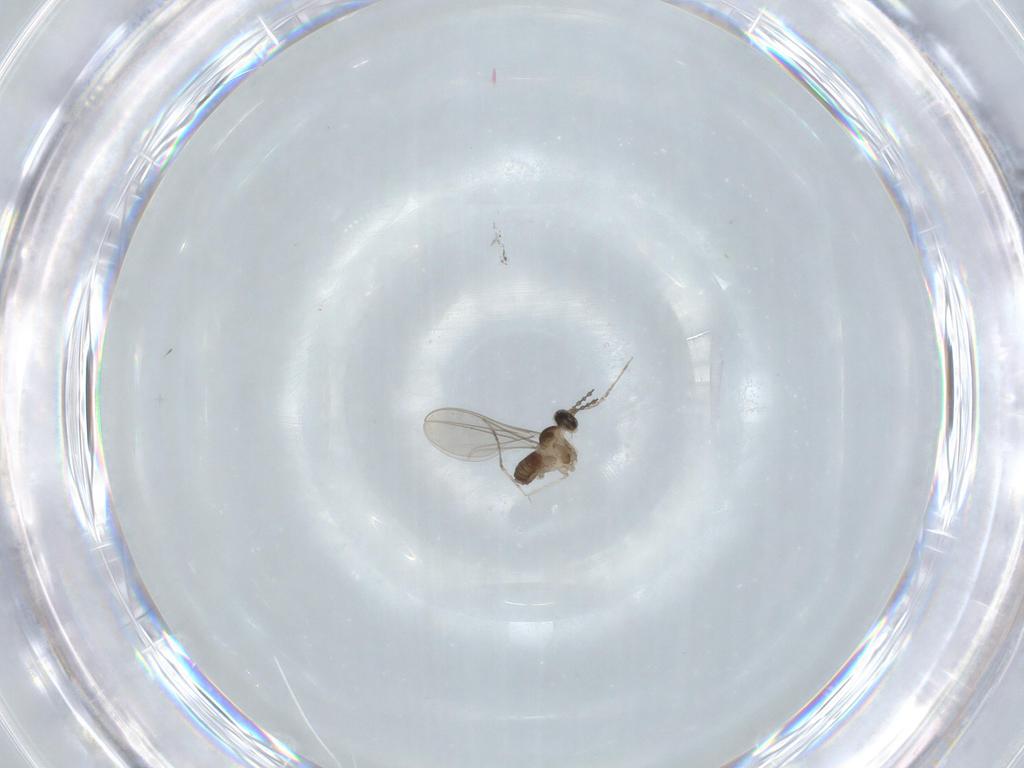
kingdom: Animalia
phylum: Arthropoda
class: Insecta
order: Diptera
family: Cecidomyiidae
